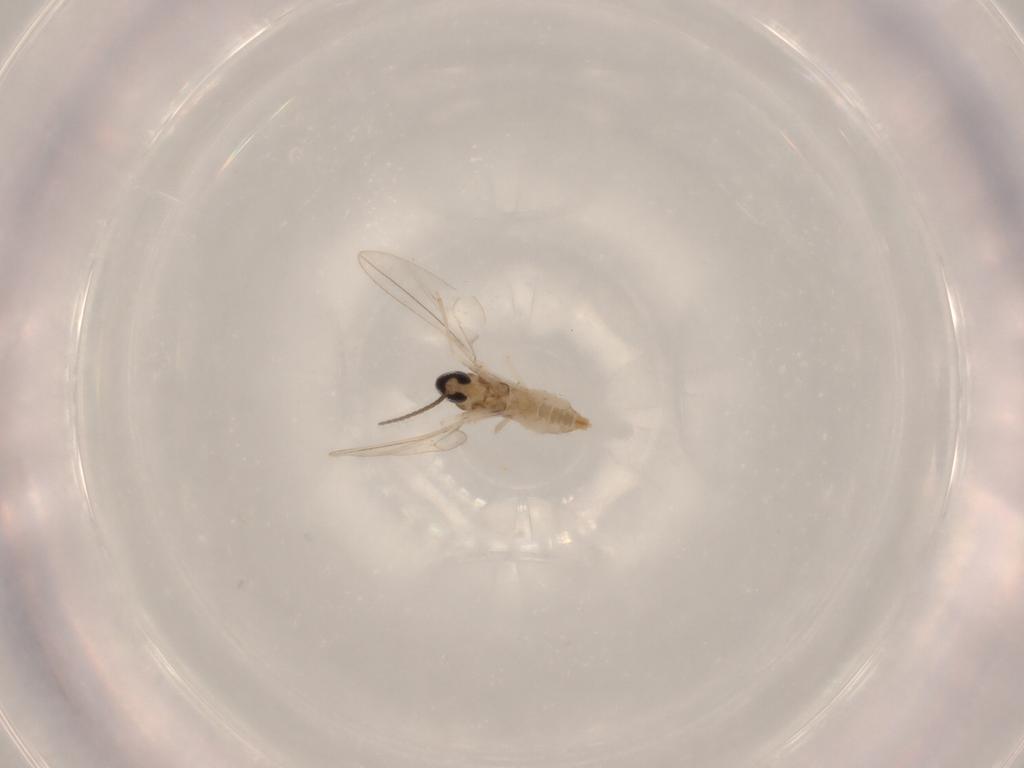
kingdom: Animalia
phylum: Arthropoda
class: Insecta
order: Diptera
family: Cecidomyiidae
